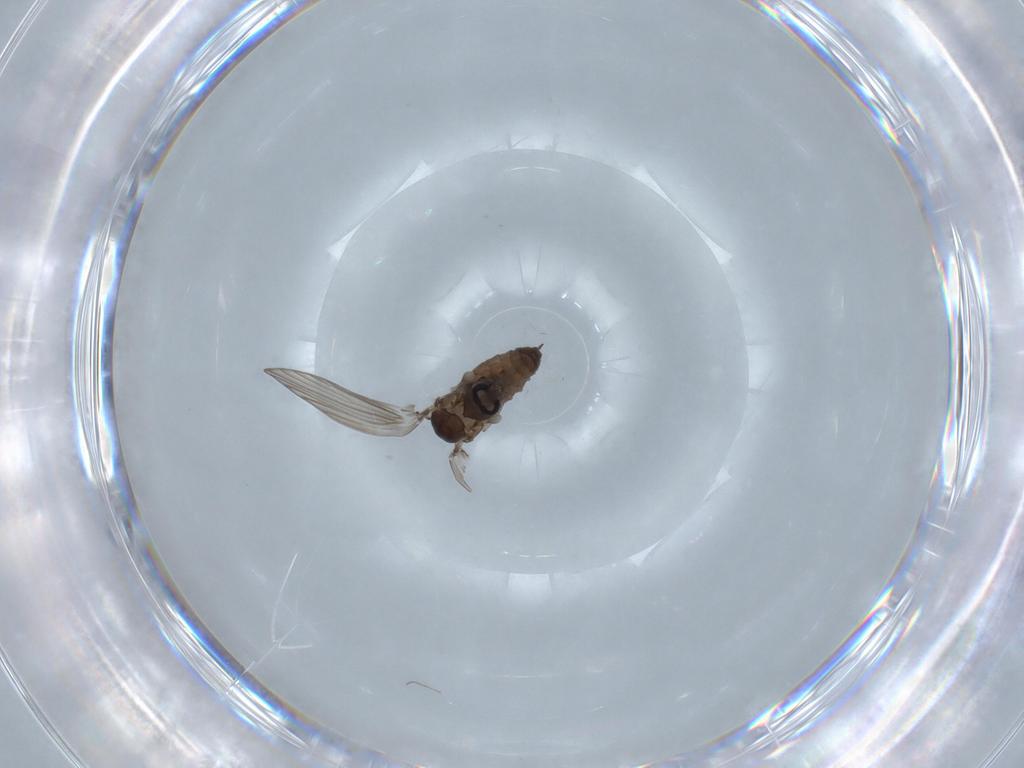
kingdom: Animalia
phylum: Arthropoda
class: Insecta
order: Diptera
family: Psychodidae
